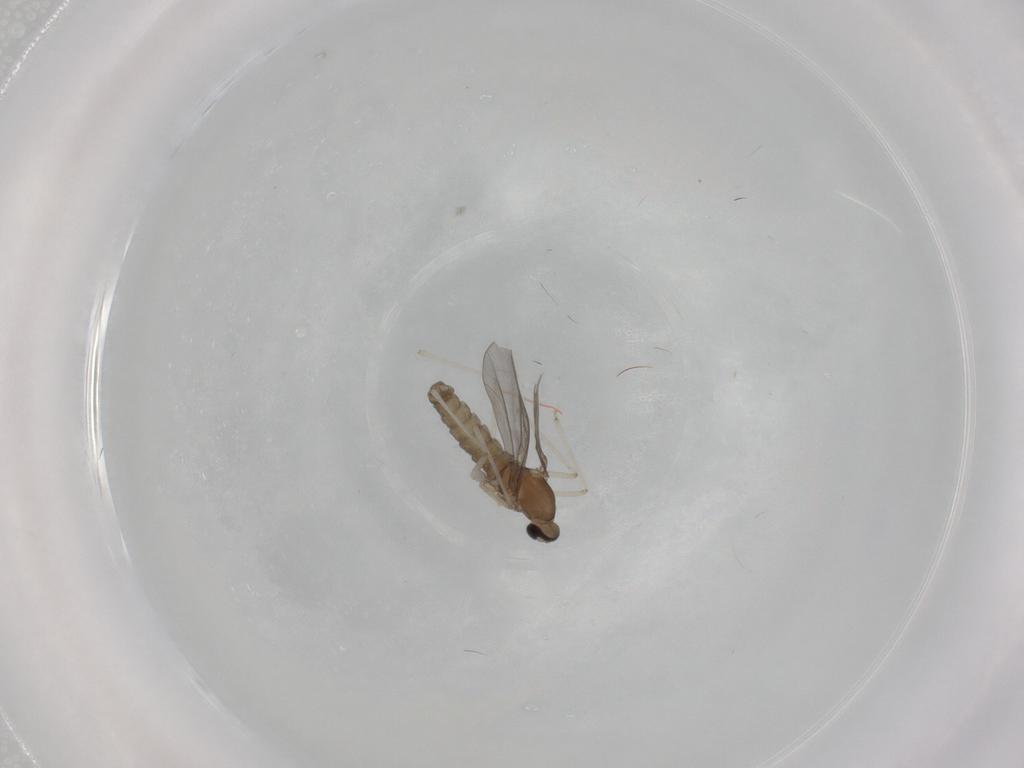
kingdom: Animalia
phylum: Arthropoda
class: Insecta
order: Diptera
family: Cecidomyiidae
